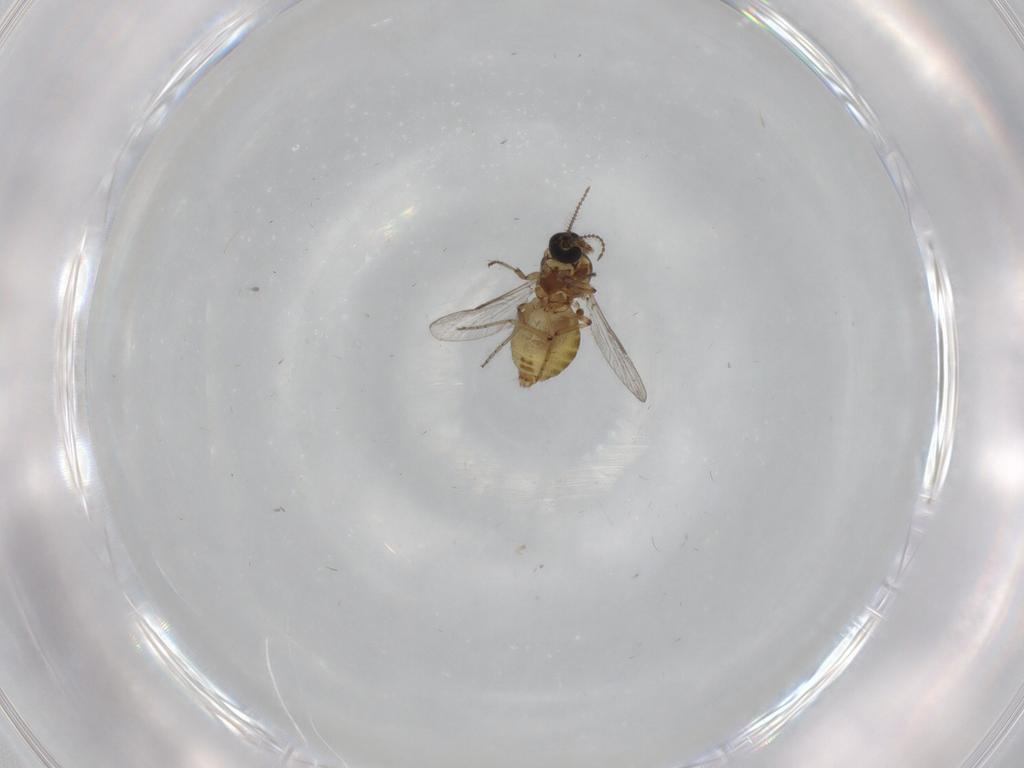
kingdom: Animalia
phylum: Arthropoda
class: Insecta
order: Diptera
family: Ceratopogonidae
